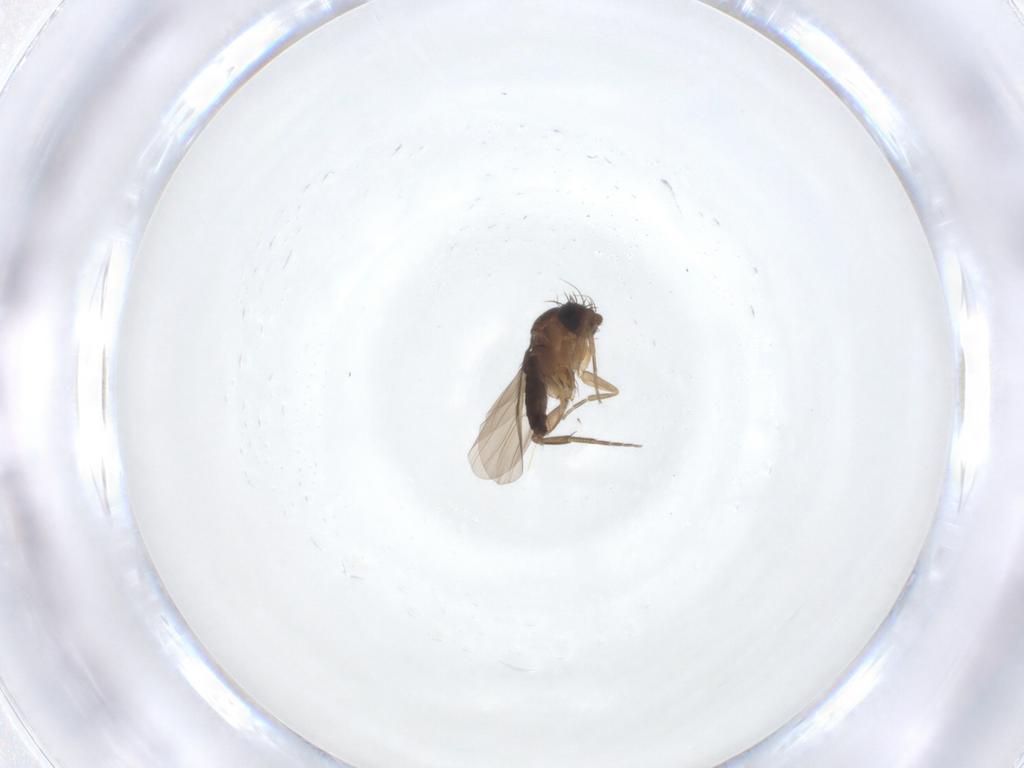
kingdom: Animalia
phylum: Arthropoda
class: Insecta
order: Diptera
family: Phoridae
